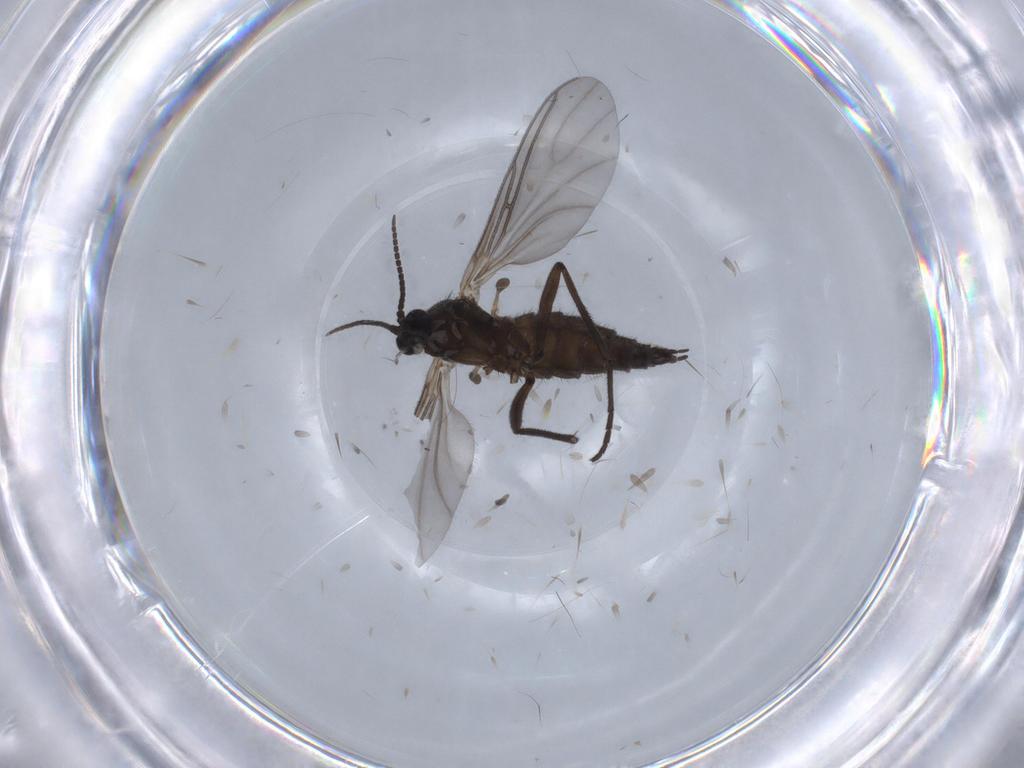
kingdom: Animalia
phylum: Arthropoda
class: Insecta
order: Diptera
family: Sciaridae
